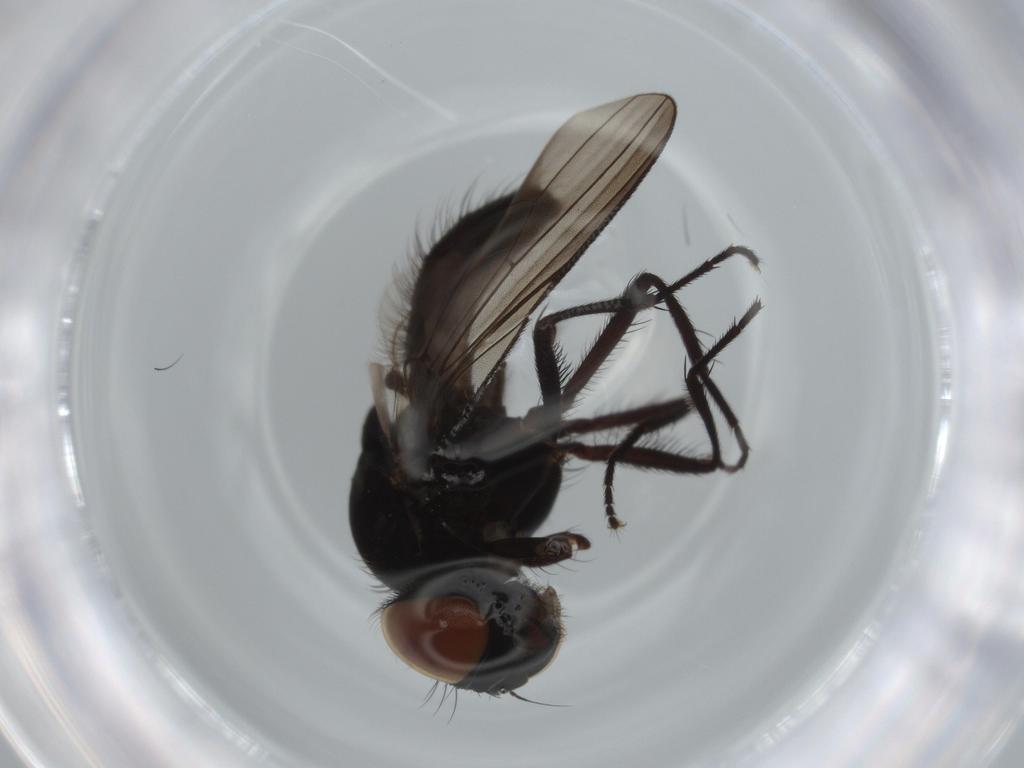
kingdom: Animalia
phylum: Arthropoda
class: Insecta
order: Diptera
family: Fannia
